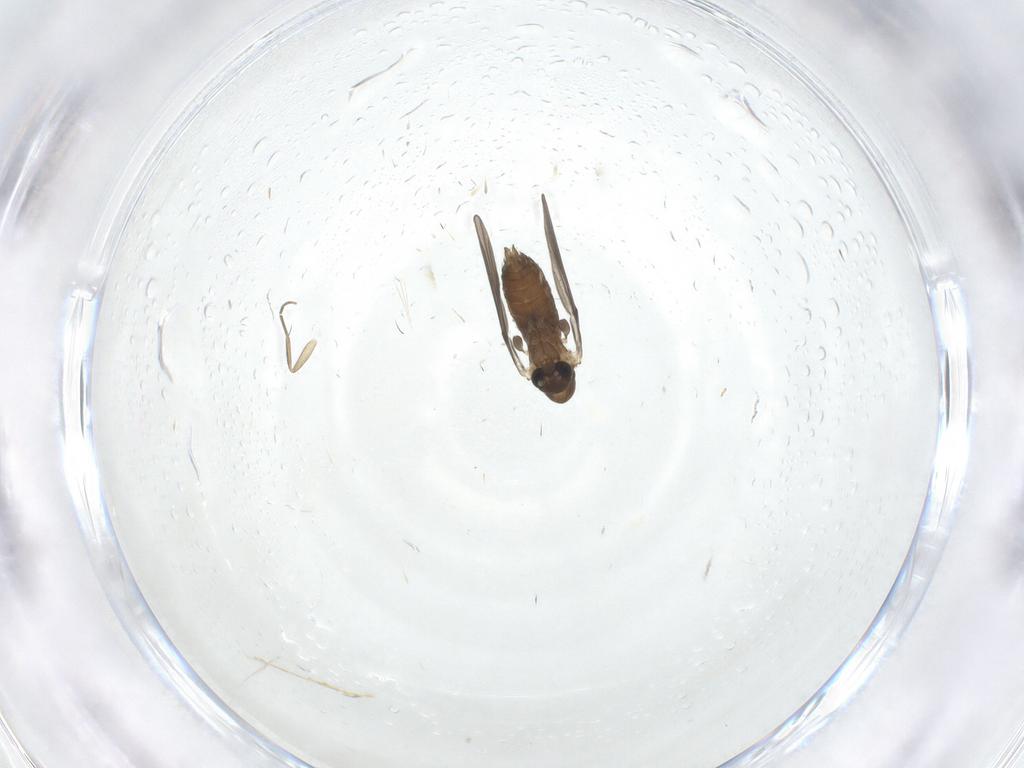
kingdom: Animalia
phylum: Arthropoda
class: Insecta
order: Diptera
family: Psychodidae
